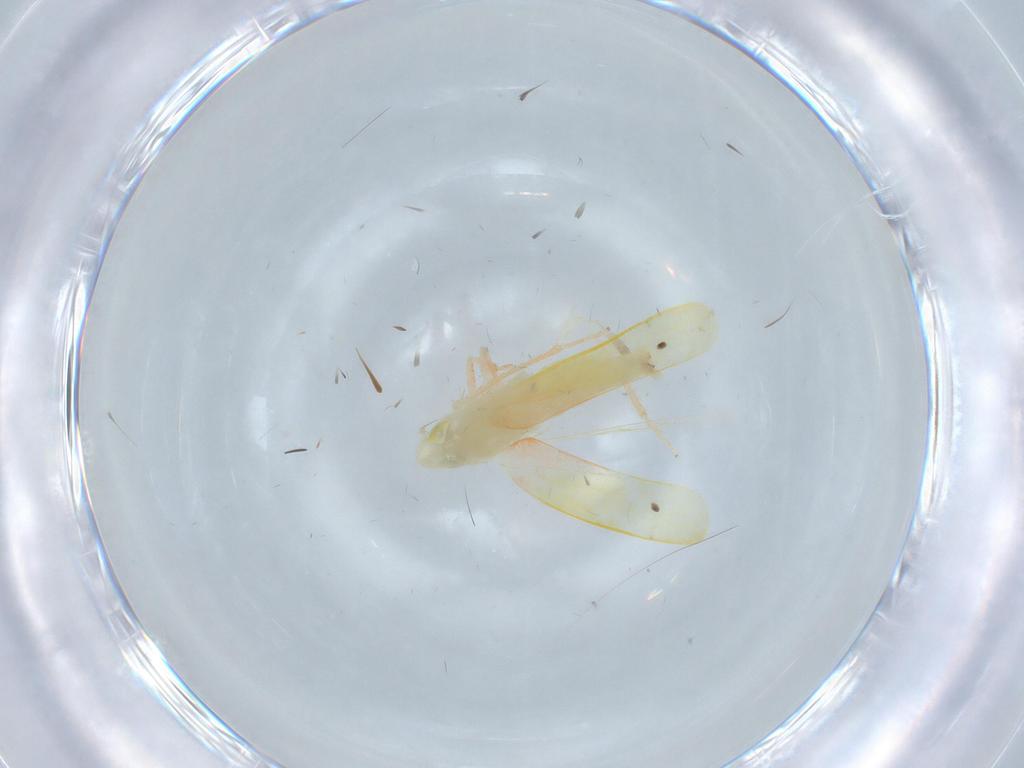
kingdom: Animalia
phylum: Arthropoda
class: Insecta
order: Hemiptera
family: Cicadellidae
